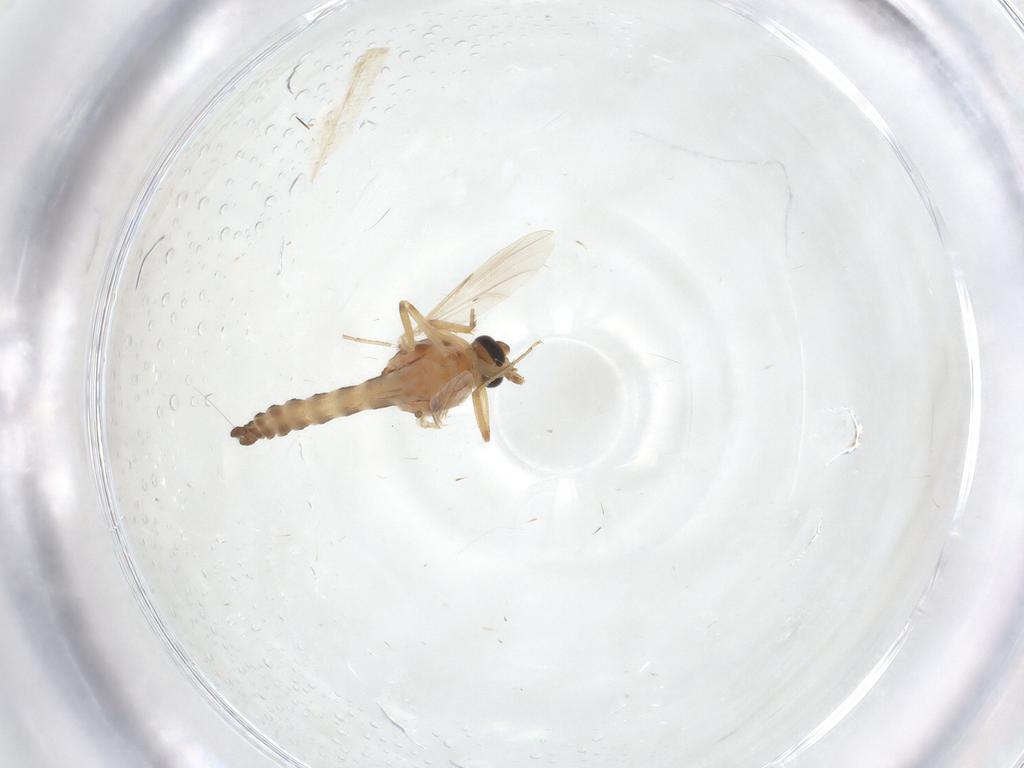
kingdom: Animalia
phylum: Arthropoda
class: Insecta
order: Diptera
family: Ceratopogonidae
